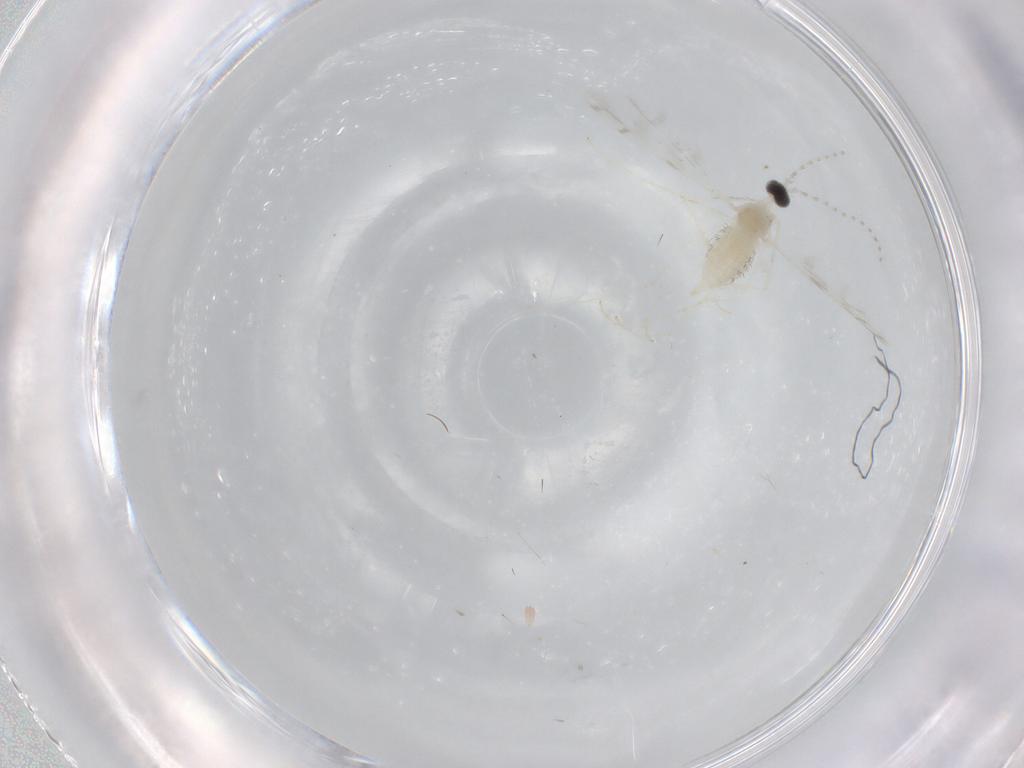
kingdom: Animalia
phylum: Arthropoda
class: Insecta
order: Diptera
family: Cecidomyiidae
